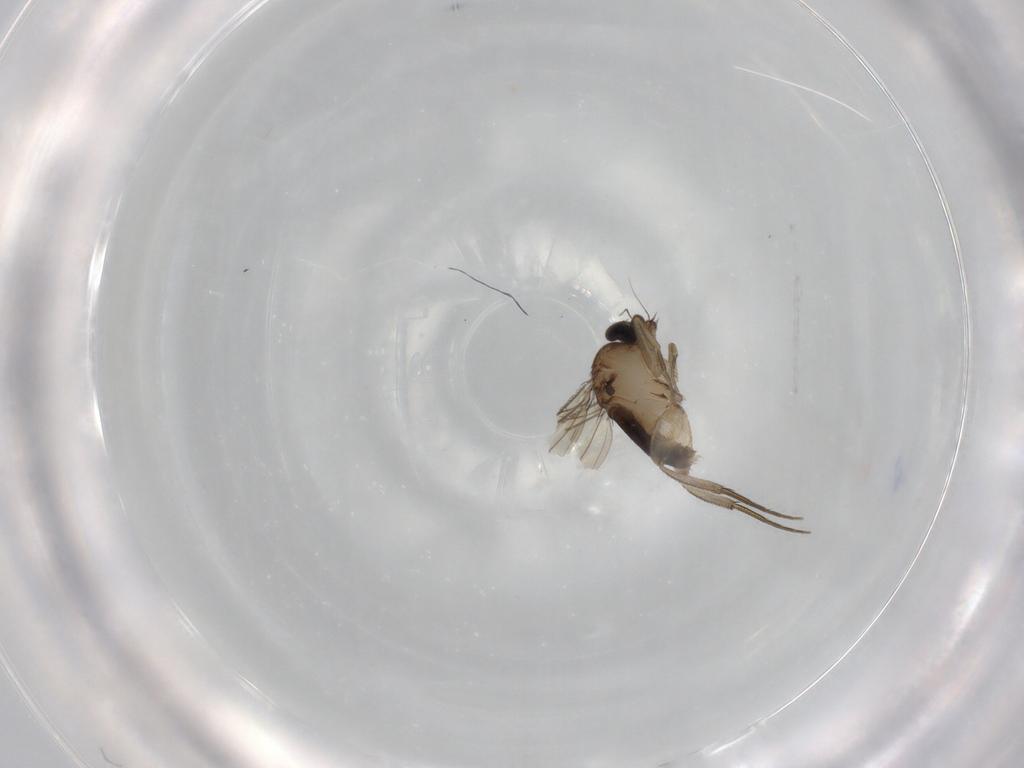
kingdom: Animalia
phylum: Arthropoda
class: Insecta
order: Diptera
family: Phoridae
